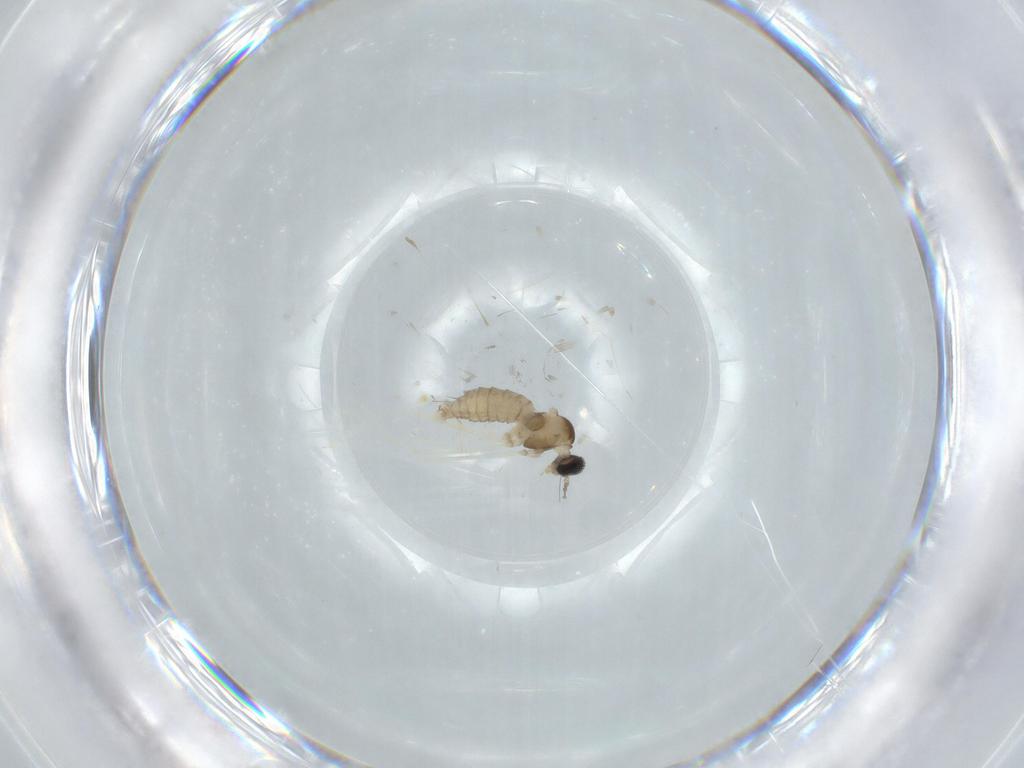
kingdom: Animalia
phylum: Arthropoda
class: Insecta
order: Diptera
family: Cecidomyiidae
